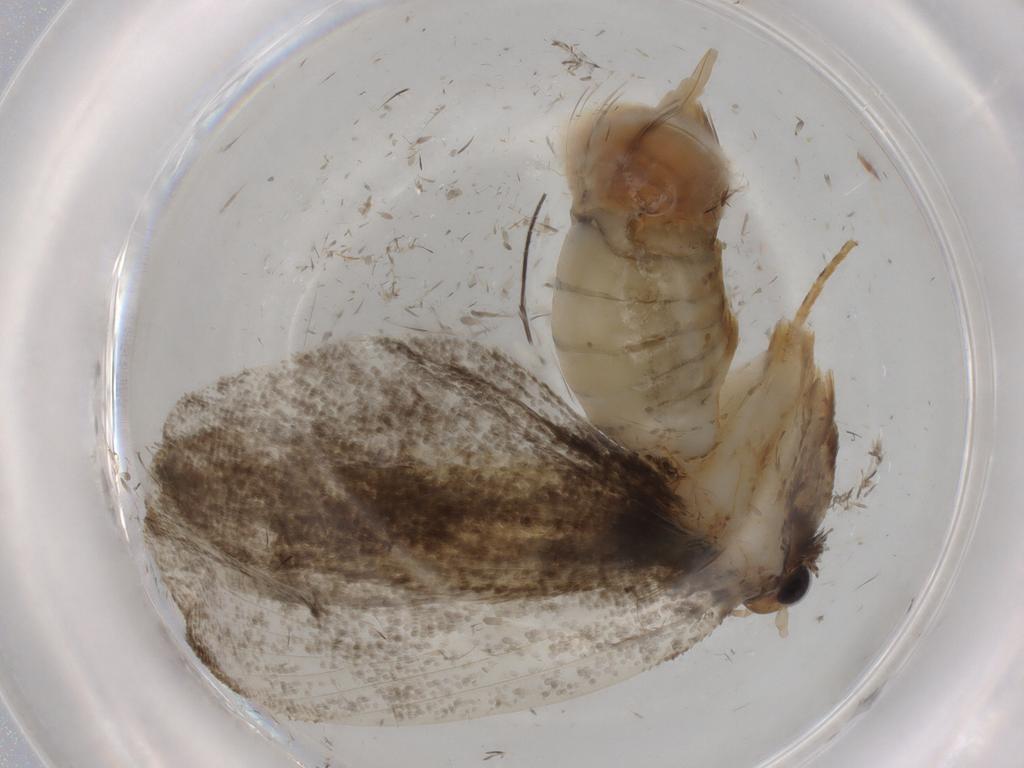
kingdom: Animalia
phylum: Arthropoda
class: Insecta
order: Lepidoptera
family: Psychidae
